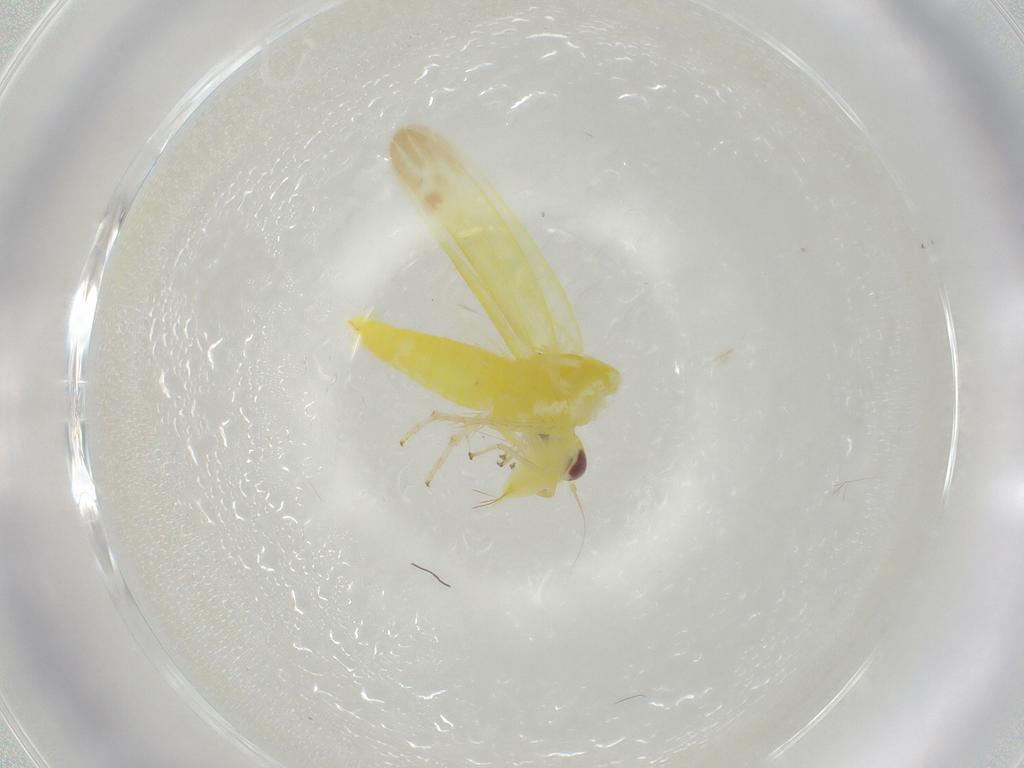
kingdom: Animalia
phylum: Arthropoda
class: Insecta
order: Hemiptera
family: Cicadellidae
